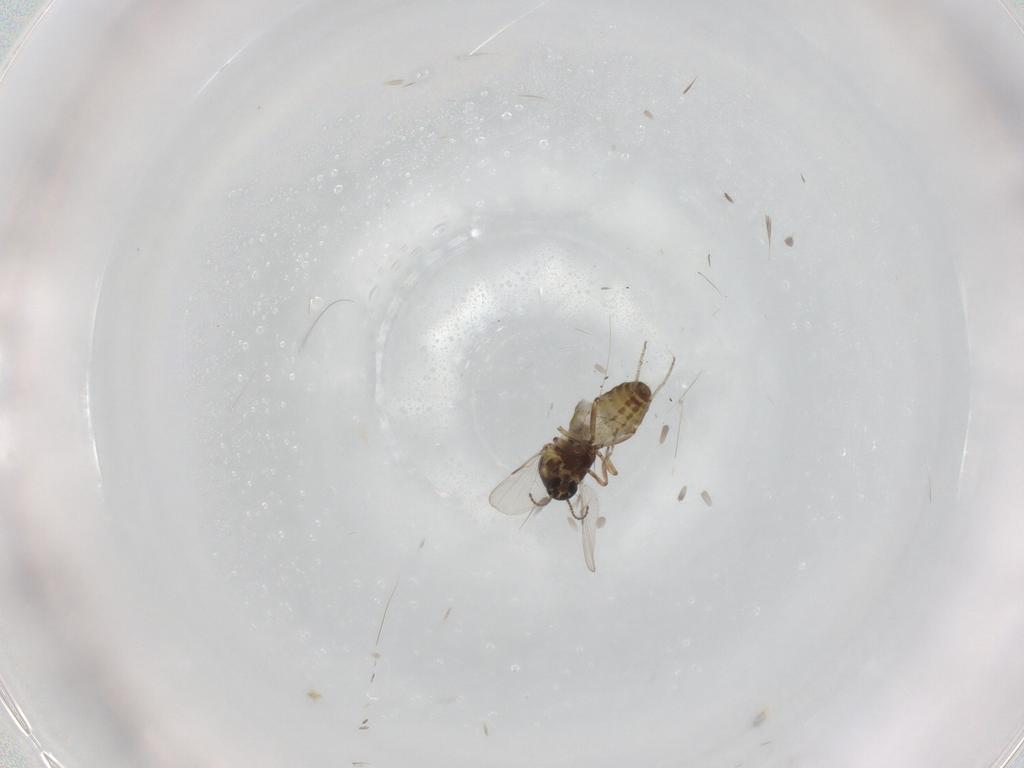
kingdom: Animalia
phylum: Arthropoda
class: Insecta
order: Diptera
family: Ceratopogonidae
